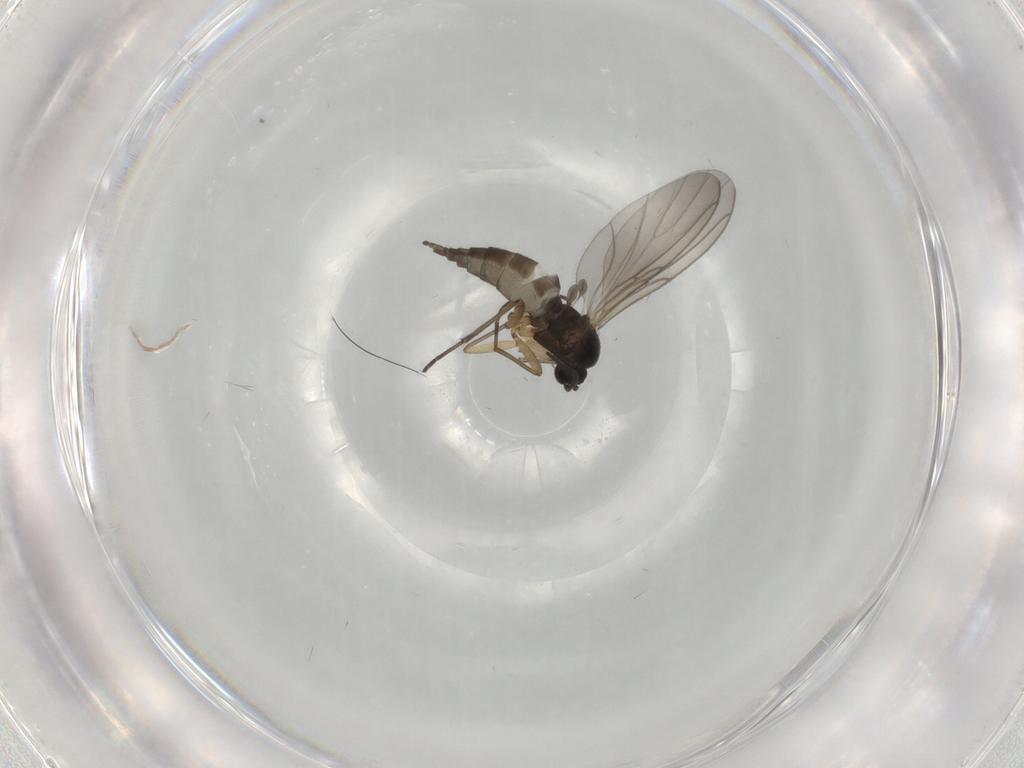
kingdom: Animalia
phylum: Arthropoda
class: Insecta
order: Diptera
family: Sciaridae
